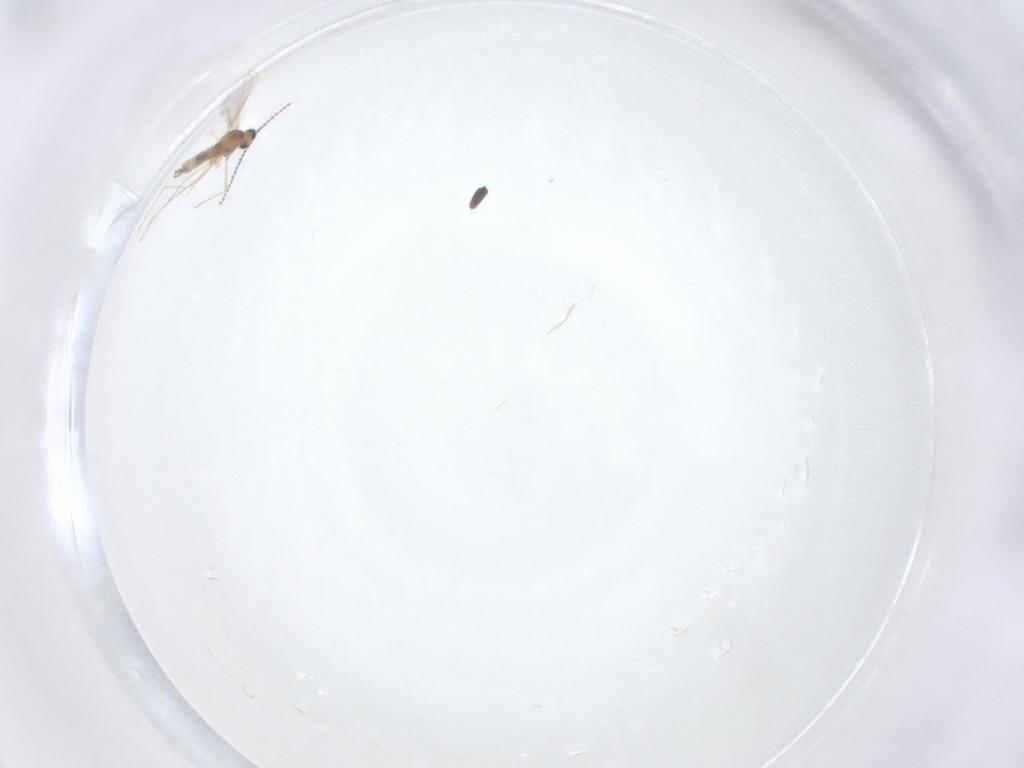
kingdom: Animalia
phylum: Arthropoda
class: Insecta
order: Diptera
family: Cecidomyiidae
